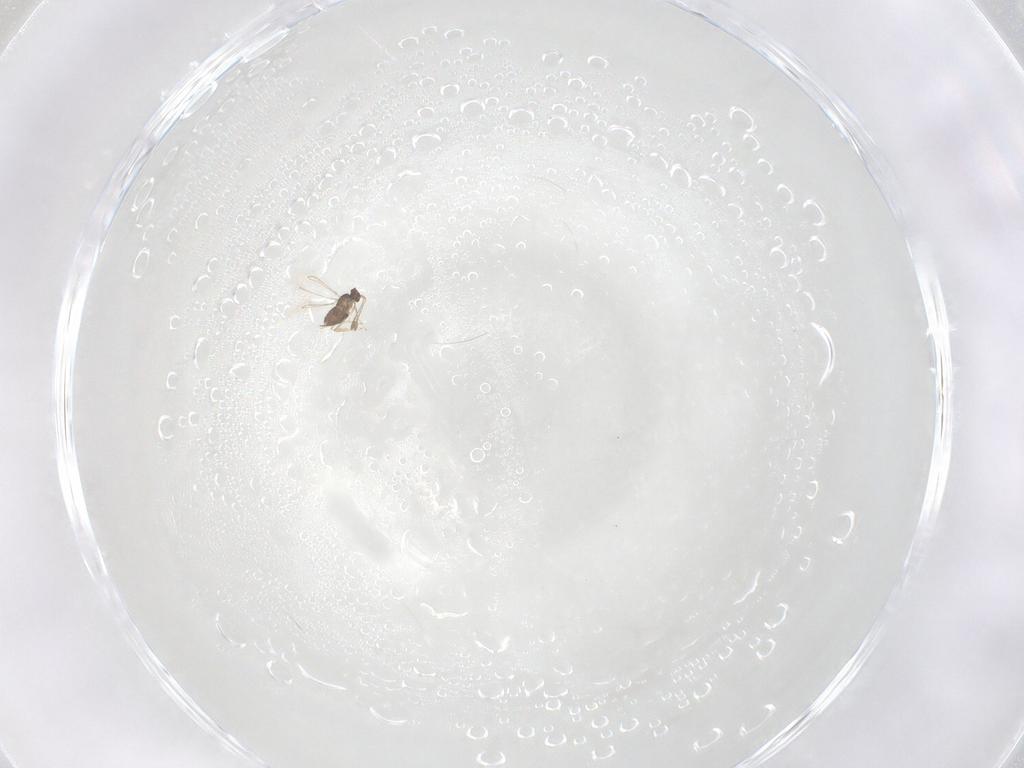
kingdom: Animalia
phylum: Arthropoda
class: Insecta
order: Hymenoptera
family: Mymaridae
